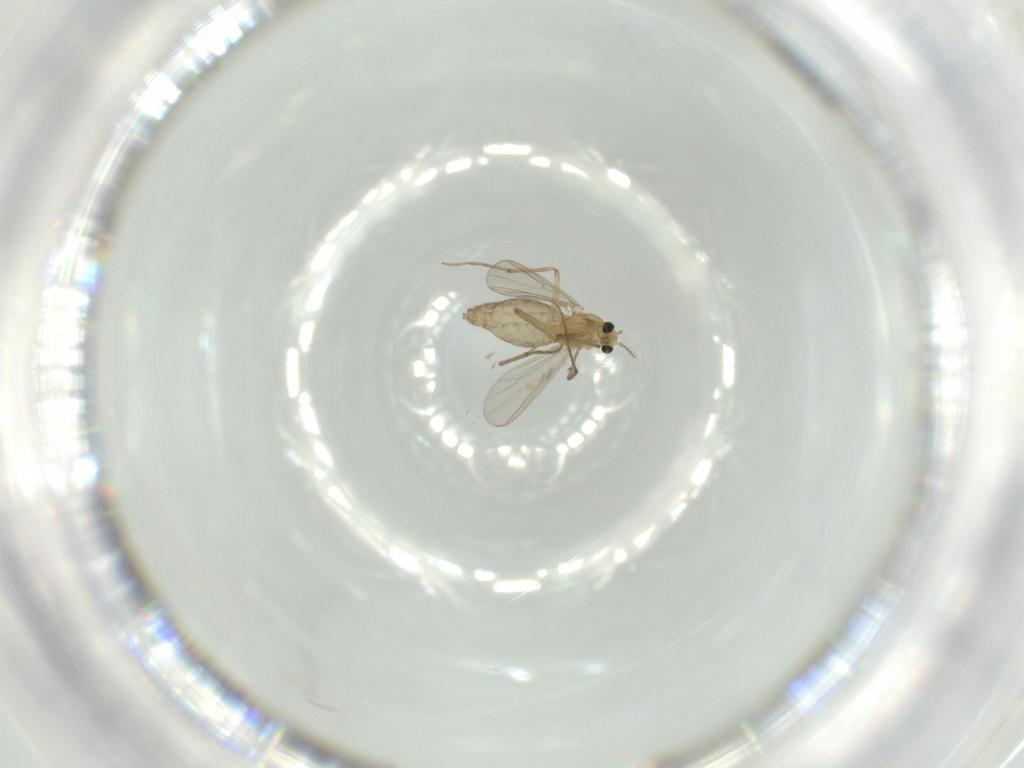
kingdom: Animalia
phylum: Arthropoda
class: Insecta
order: Diptera
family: Chironomidae
